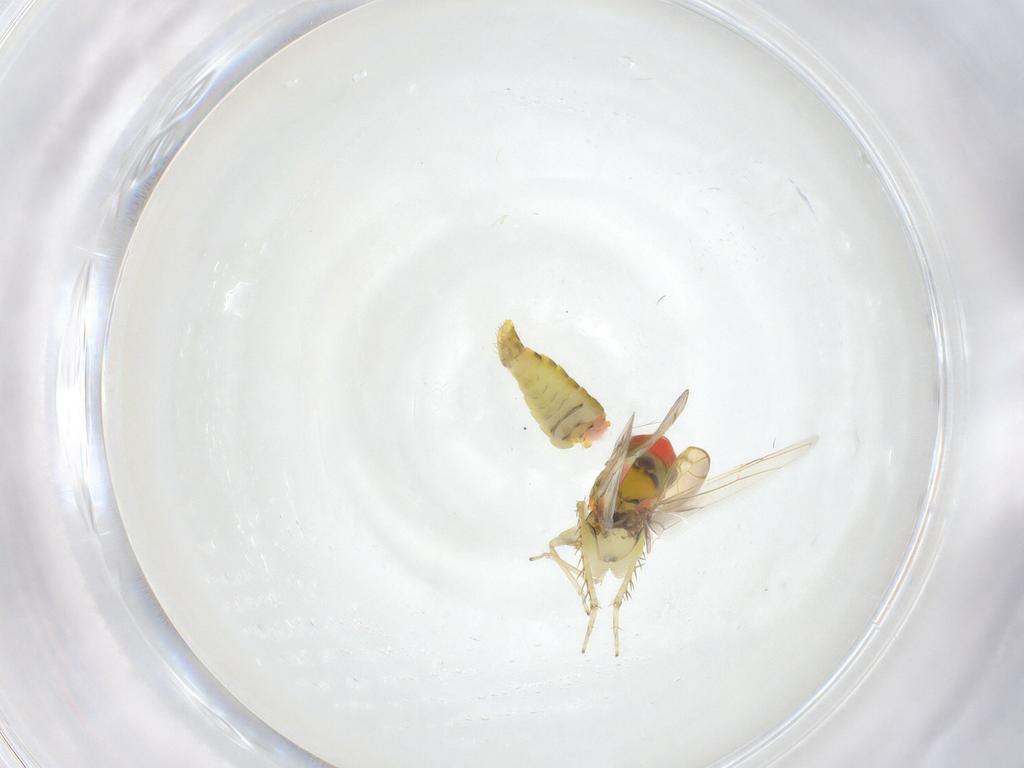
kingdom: Animalia
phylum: Arthropoda
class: Insecta
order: Hemiptera
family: Cicadellidae
